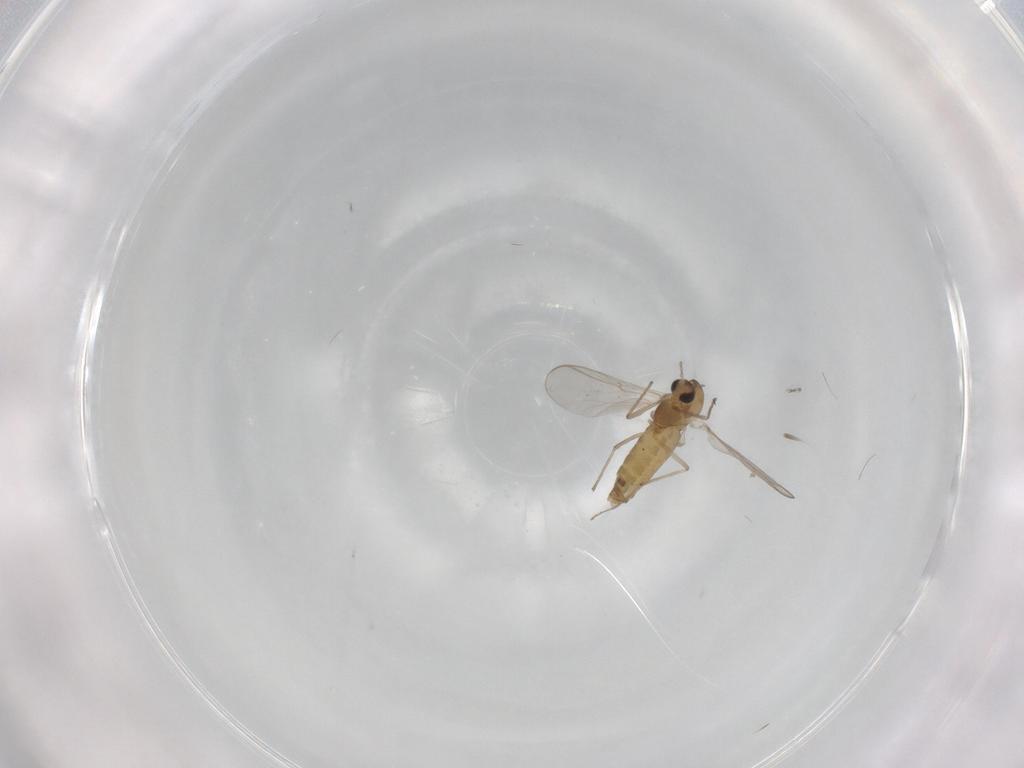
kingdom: Animalia
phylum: Arthropoda
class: Insecta
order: Diptera
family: Chironomidae
